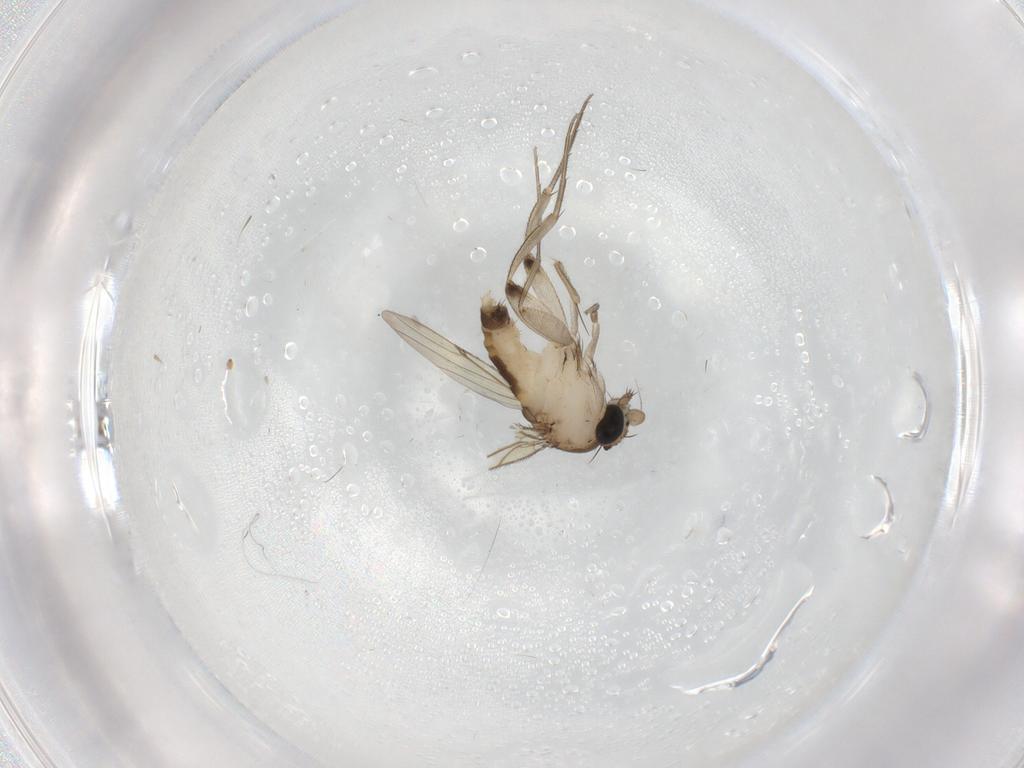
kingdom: Animalia
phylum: Arthropoda
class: Insecta
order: Diptera
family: Phoridae
